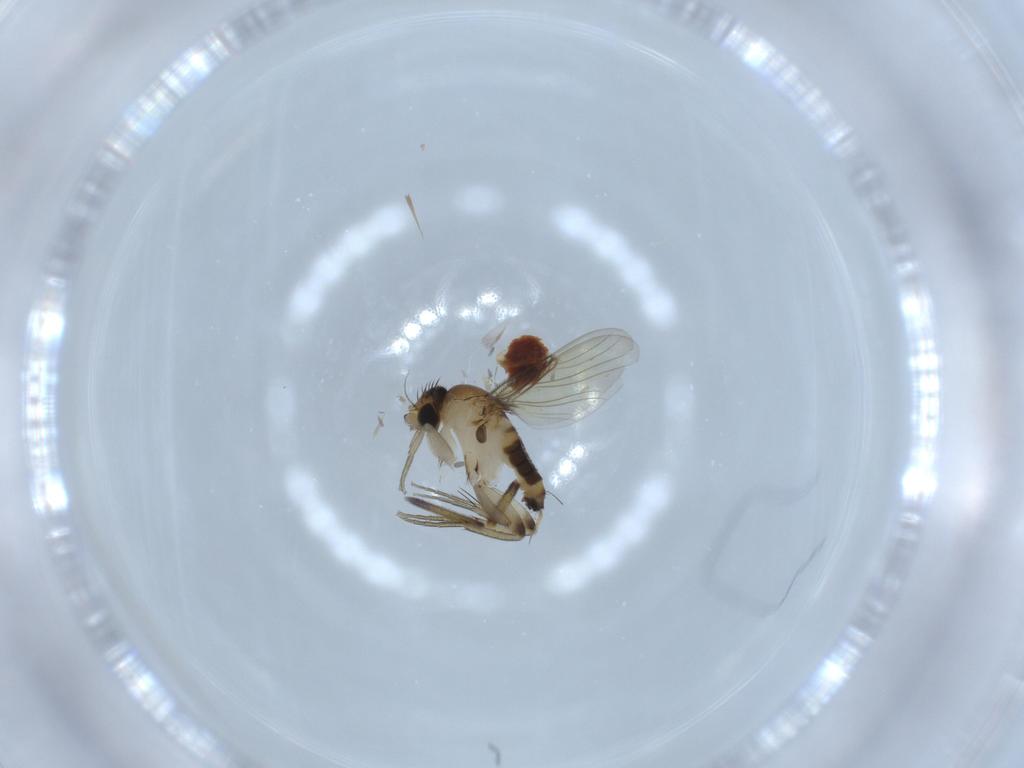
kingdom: Animalia
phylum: Arthropoda
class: Insecta
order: Diptera
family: Phoridae
